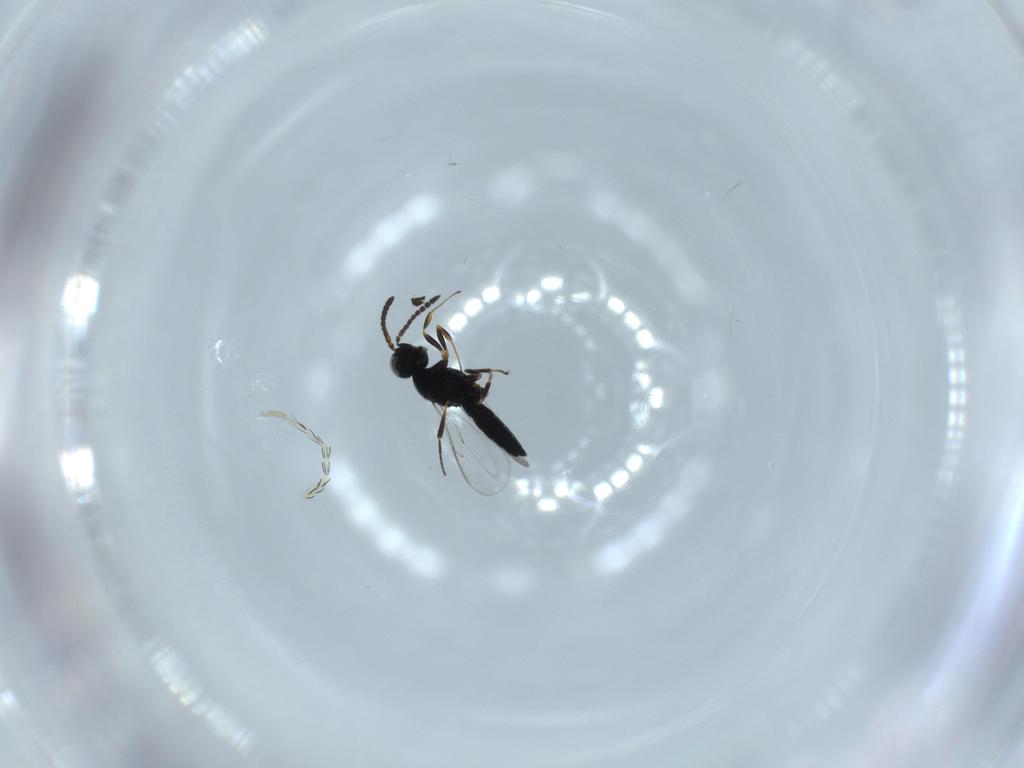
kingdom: Animalia
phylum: Arthropoda
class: Insecta
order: Hymenoptera
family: Scelionidae
